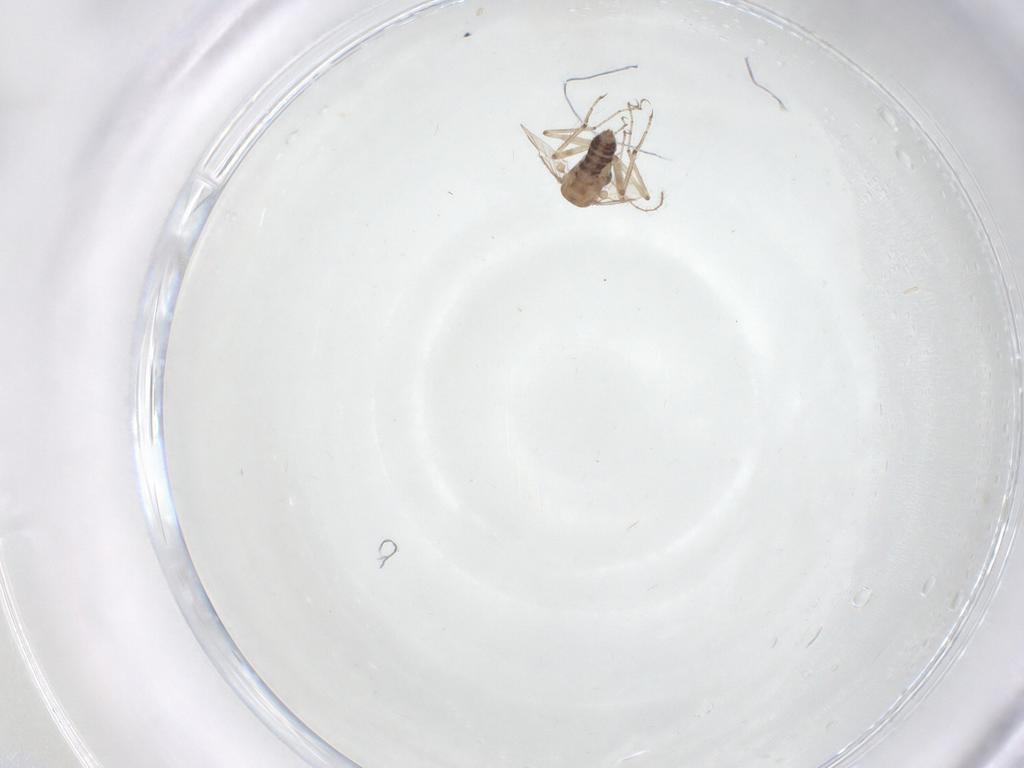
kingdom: Animalia
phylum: Arthropoda
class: Insecta
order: Diptera
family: Ceratopogonidae
